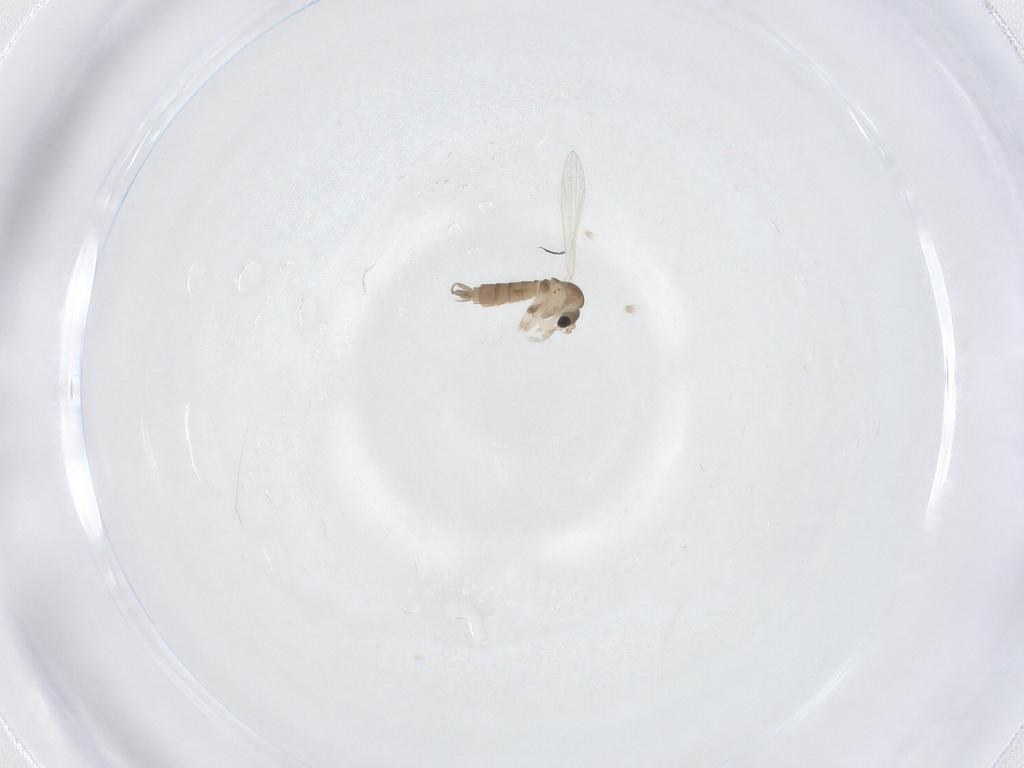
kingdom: Animalia
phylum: Arthropoda
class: Insecta
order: Diptera
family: Psychodidae
